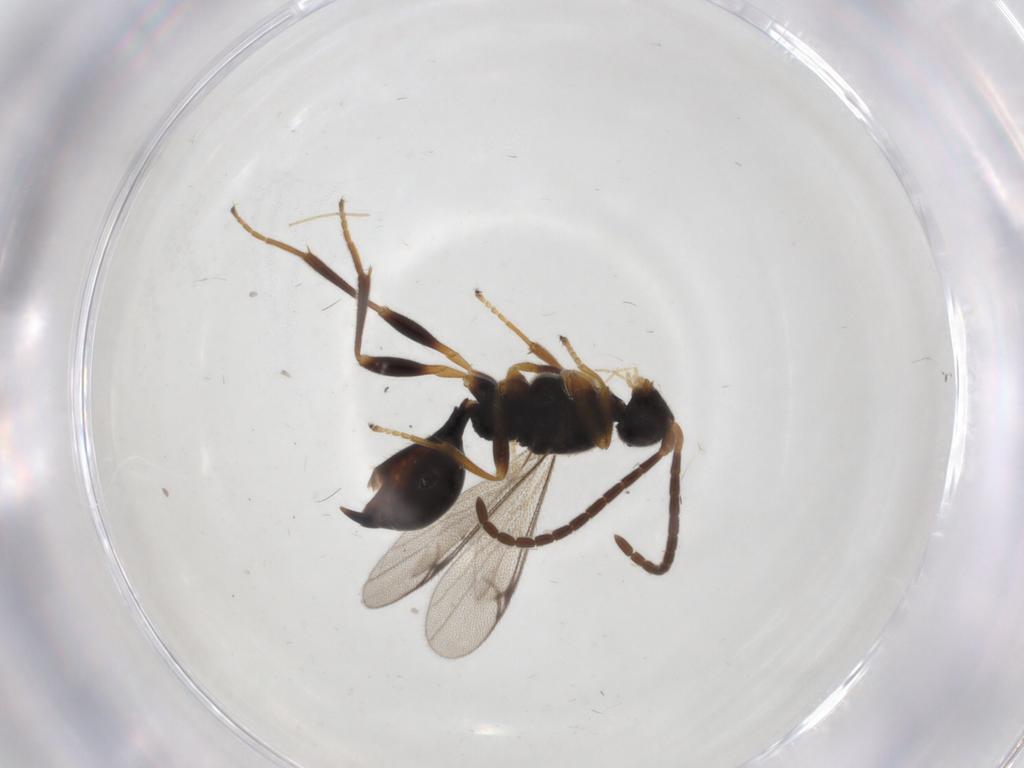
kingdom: Animalia
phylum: Arthropoda
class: Insecta
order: Hymenoptera
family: Proctotrupidae
